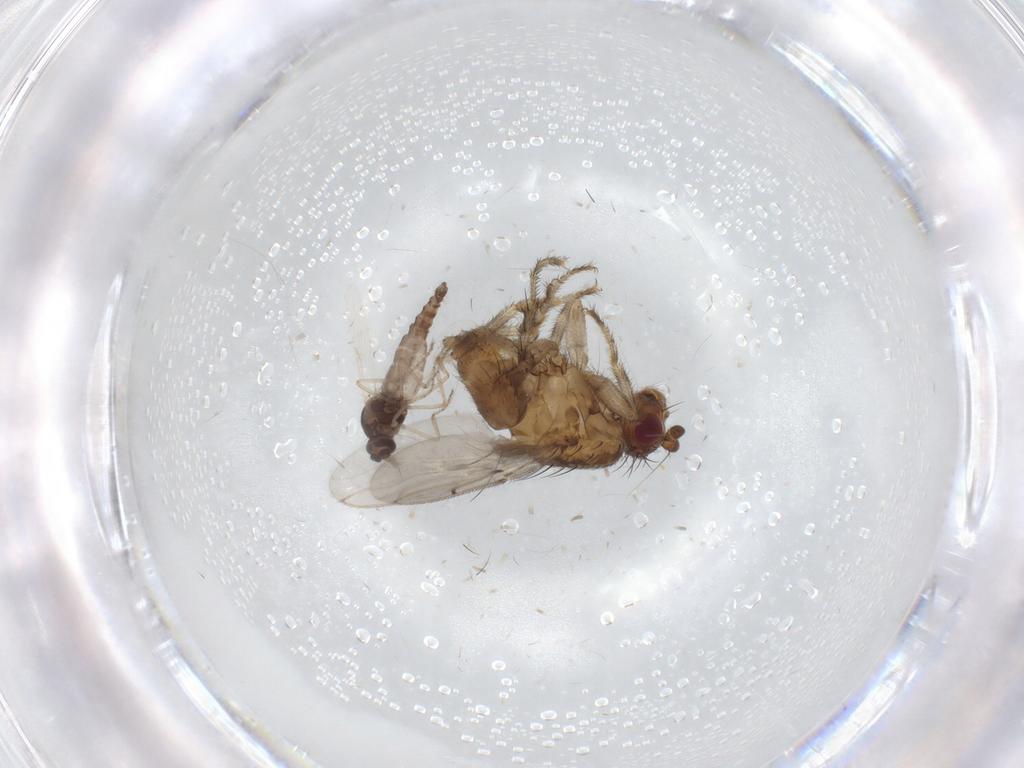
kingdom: Animalia
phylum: Arthropoda
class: Insecta
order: Diptera
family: Sphaeroceridae
